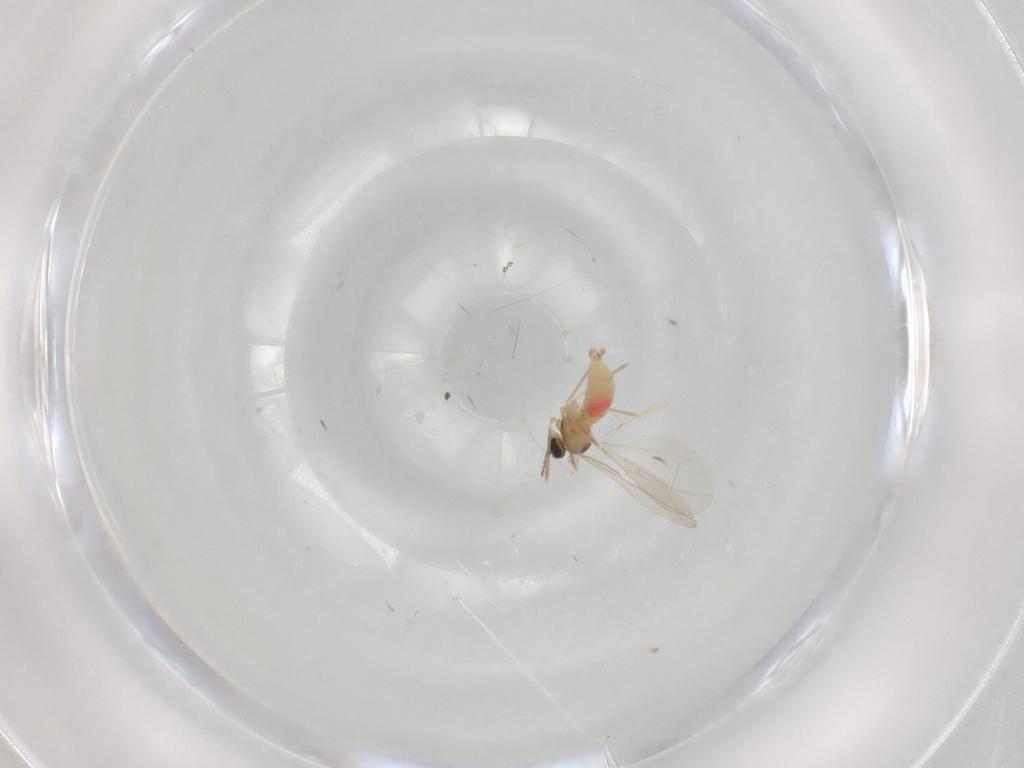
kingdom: Animalia
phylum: Arthropoda
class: Insecta
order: Diptera
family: Cecidomyiidae
